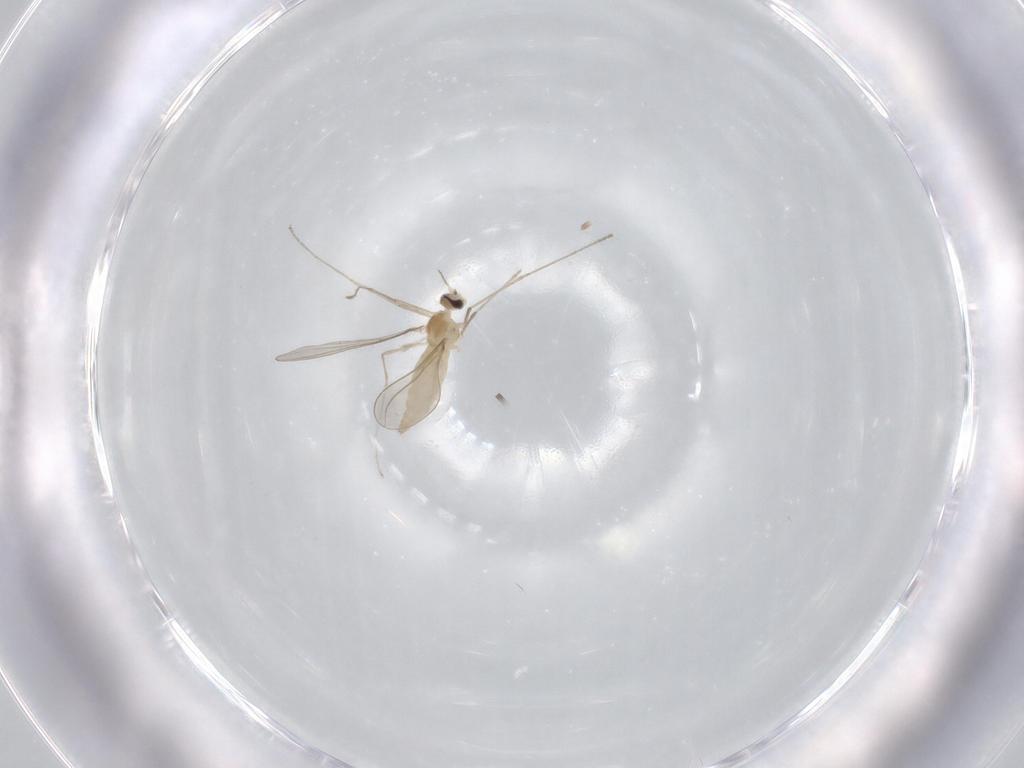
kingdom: Animalia
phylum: Arthropoda
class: Insecta
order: Diptera
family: Cecidomyiidae
